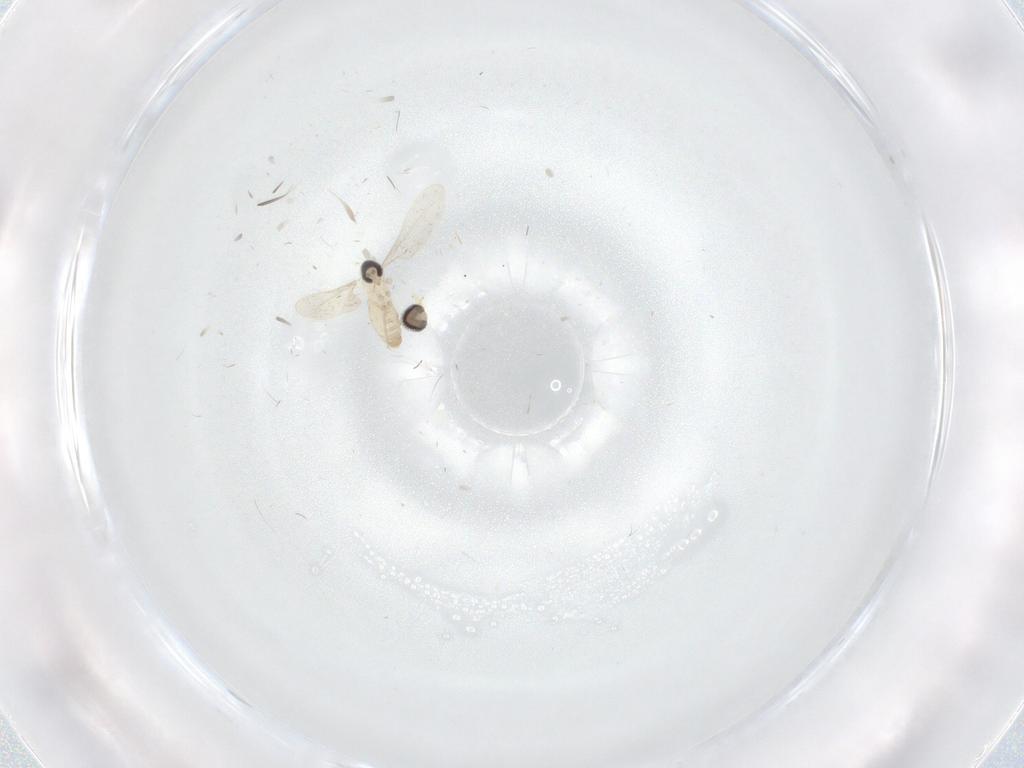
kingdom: Animalia
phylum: Arthropoda
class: Insecta
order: Diptera
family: Cecidomyiidae
